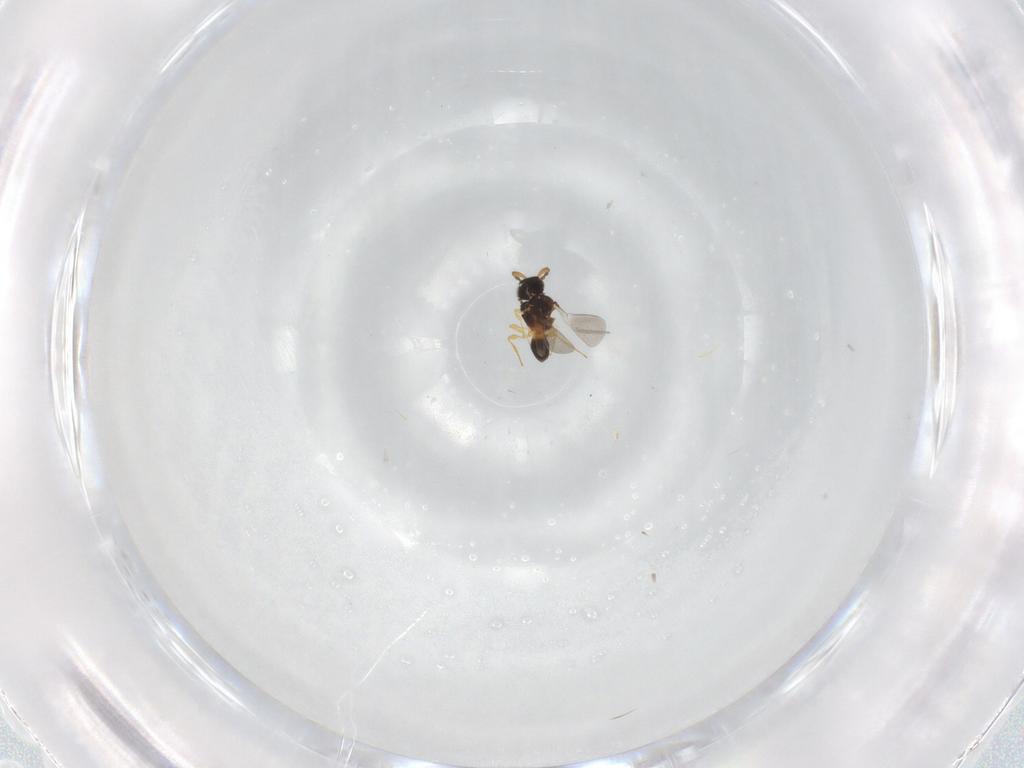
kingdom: Animalia
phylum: Arthropoda
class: Insecta
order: Hymenoptera
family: Platygastridae
